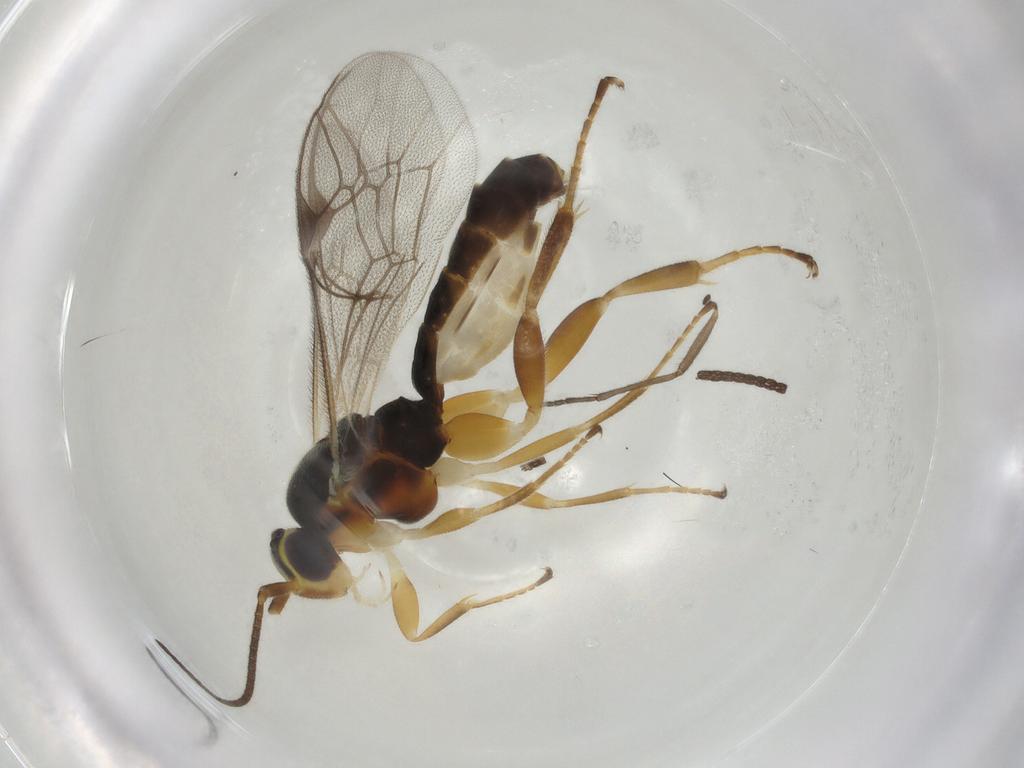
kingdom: Animalia
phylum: Arthropoda
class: Insecta
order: Hymenoptera
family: Ichneumonidae
